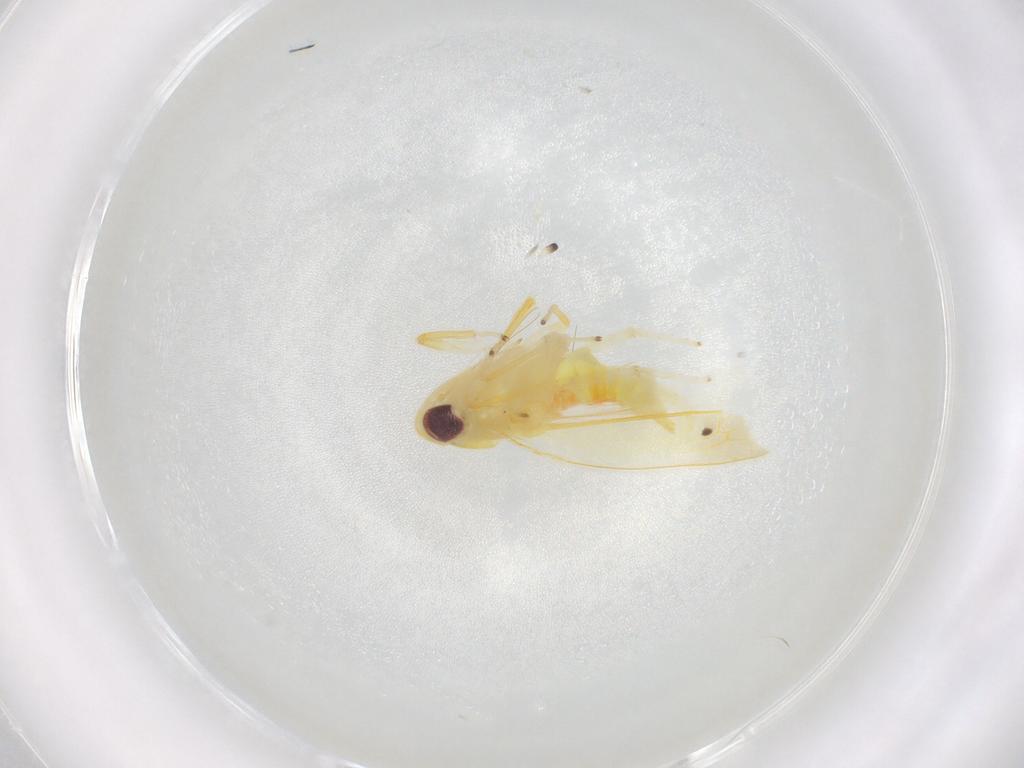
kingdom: Animalia
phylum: Arthropoda
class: Insecta
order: Hemiptera
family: Cicadellidae
